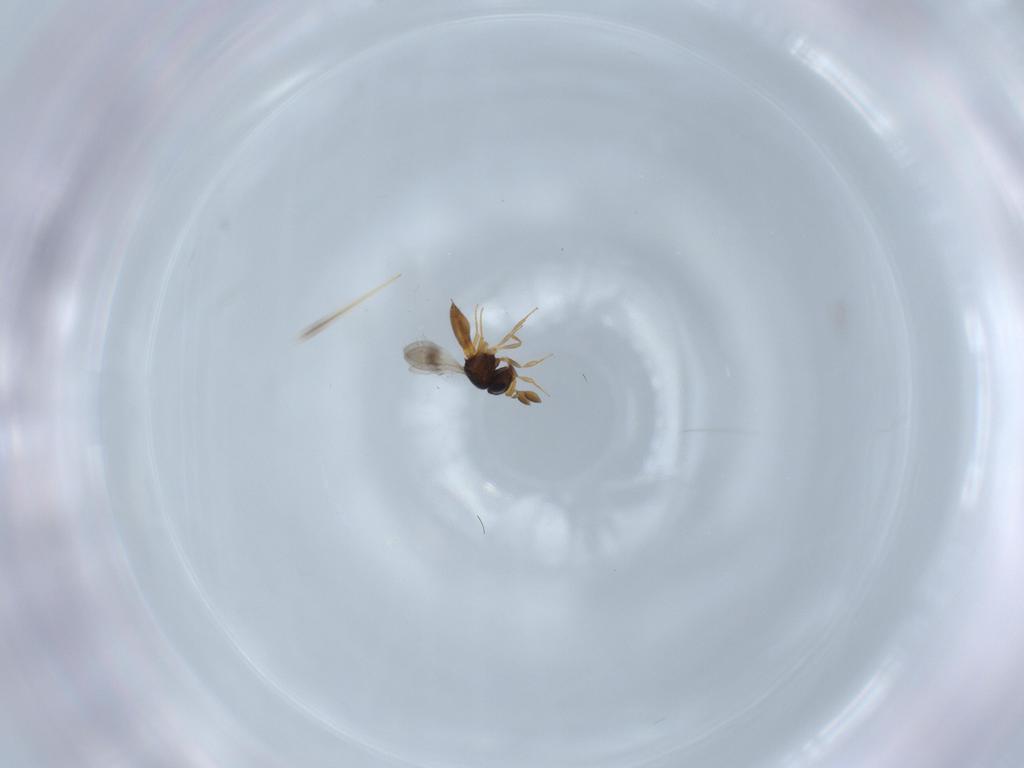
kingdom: Animalia
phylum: Arthropoda
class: Insecta
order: Hymenoptera
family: Scelionidae
